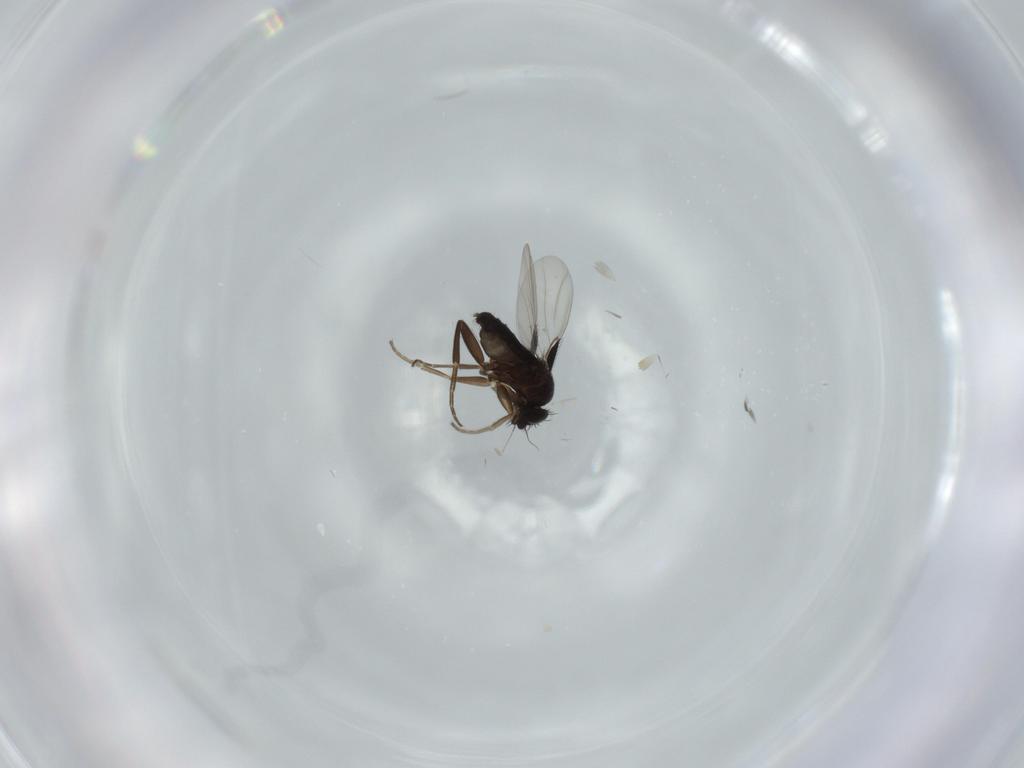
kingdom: Animalia
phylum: Arthropoda
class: Insecta
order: Diptera
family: Phoridae
